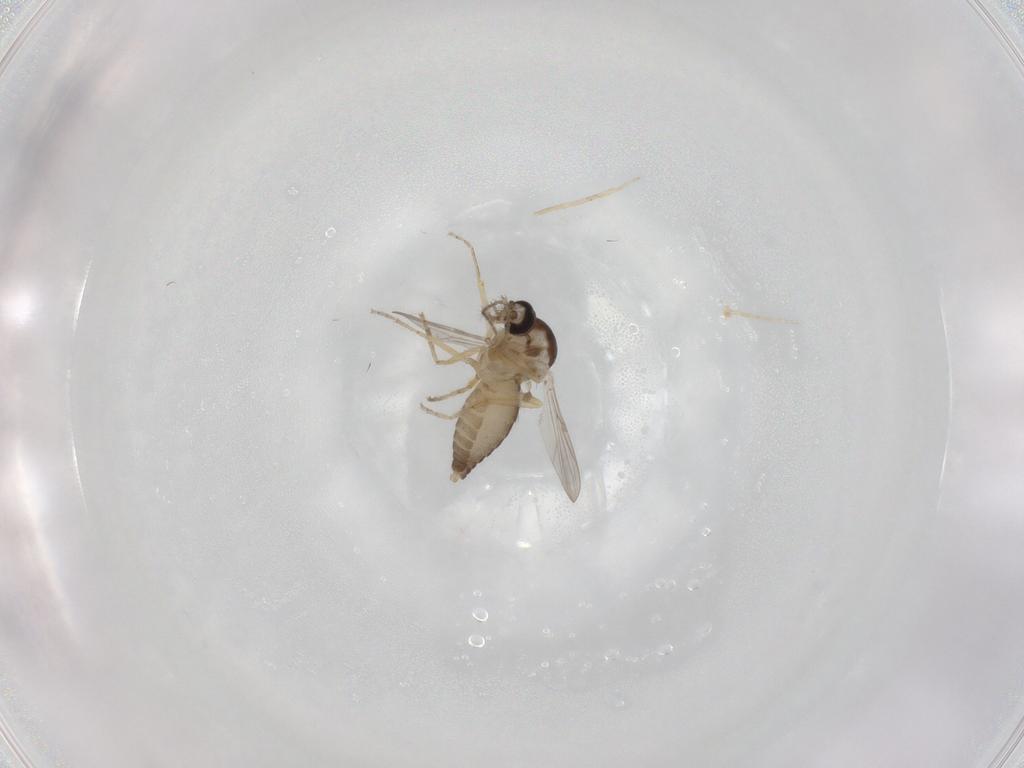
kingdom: Animalia
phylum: Arthropoda
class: Insecta
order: Diptera
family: Ceratopogonidae
